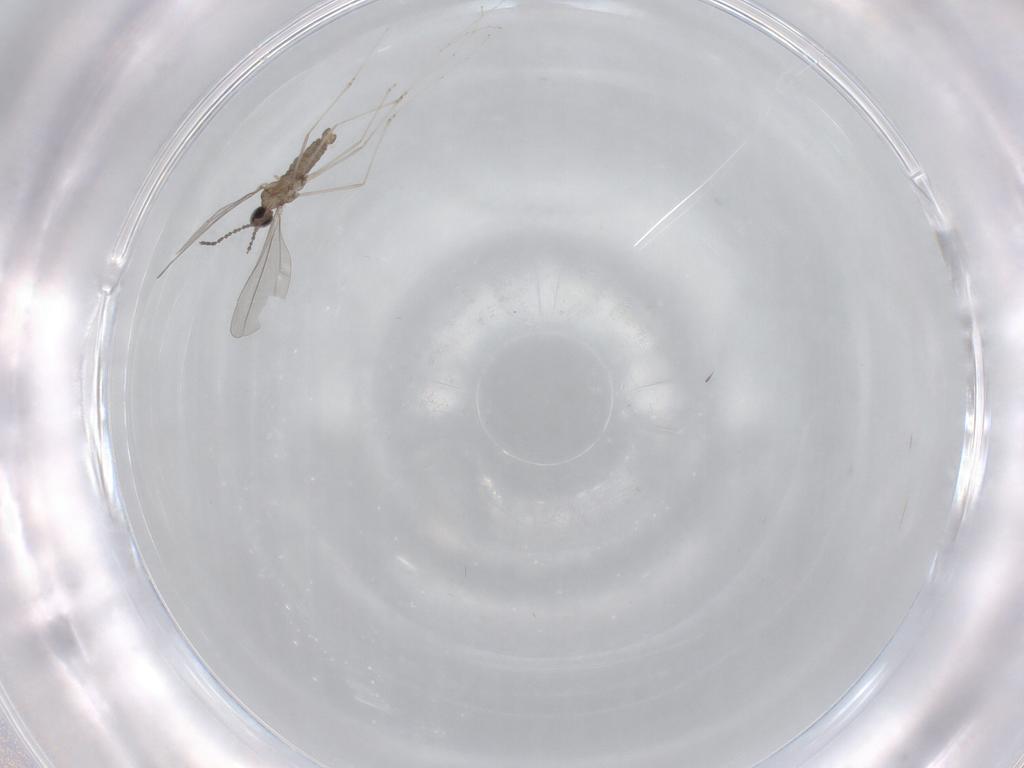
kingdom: Animalia
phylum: Arthropoda
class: Insecta
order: Diptera
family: Cecidomyiidae
